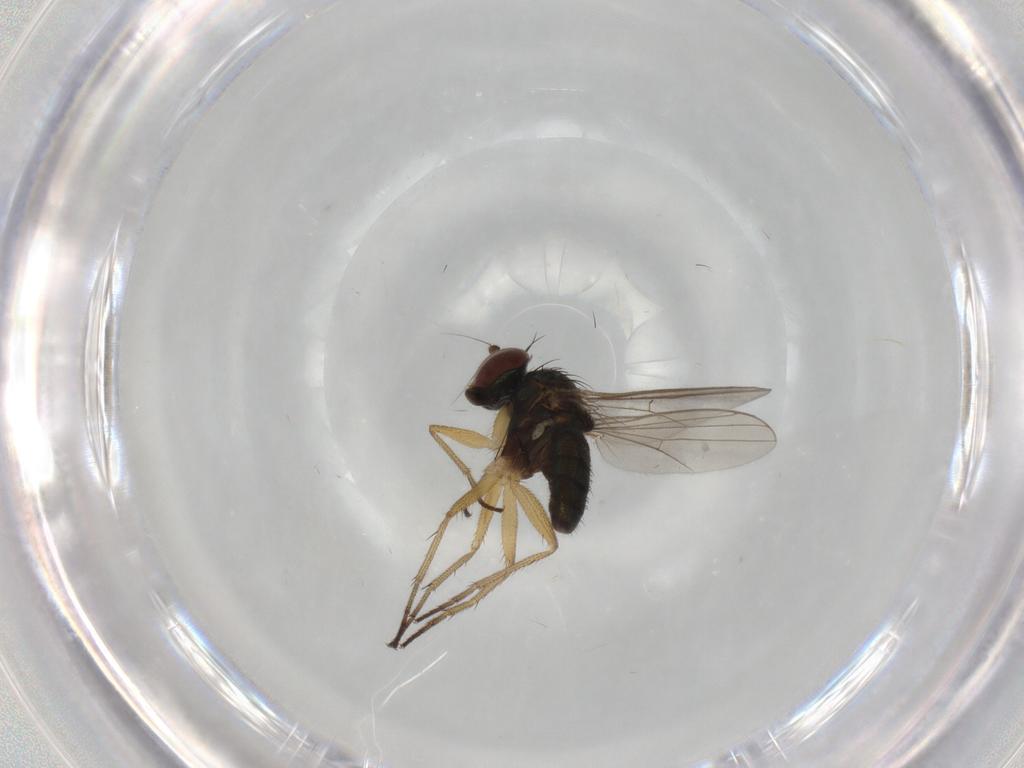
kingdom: Animalia
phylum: Arthropoda
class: Insecta
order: Diptera
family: Dolichopodidae
